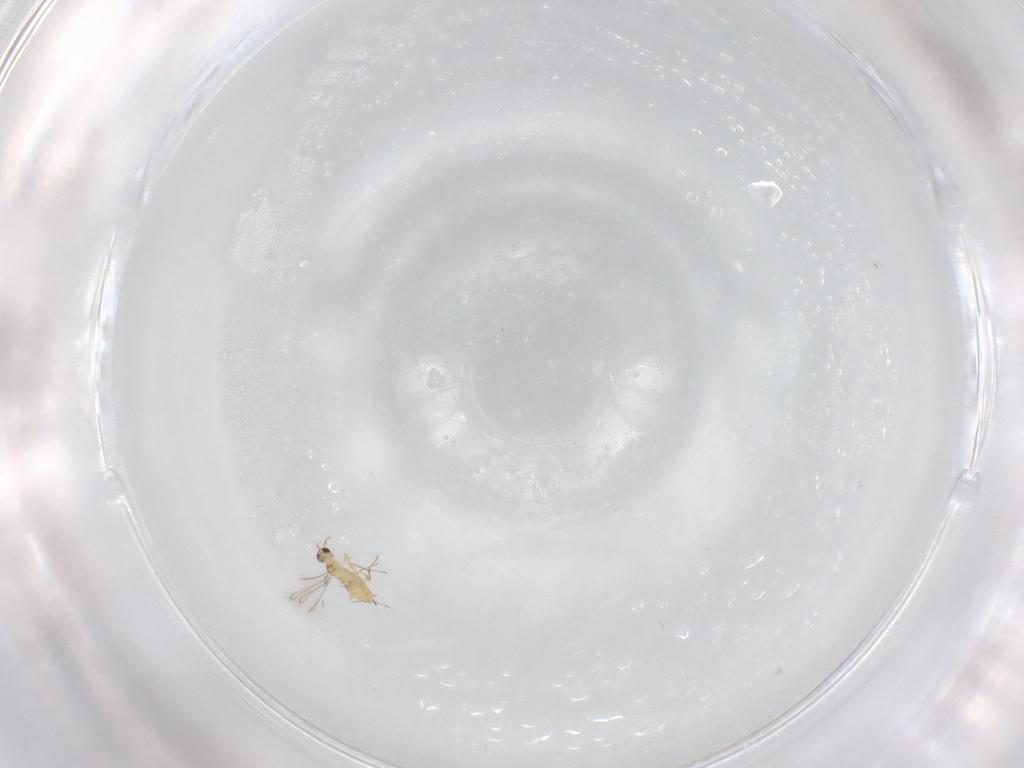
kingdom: Animalia
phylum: Arthropoda
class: Insecta
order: Hymenoptera
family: Mymaridae
